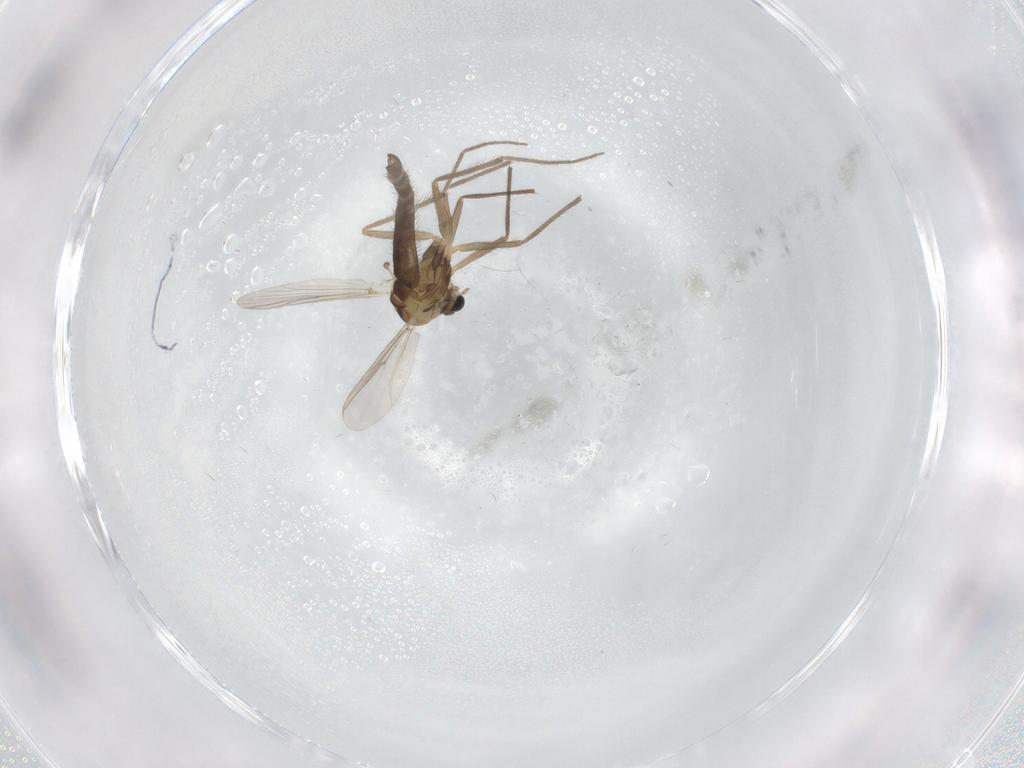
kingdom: Animalia
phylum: Arthropoda
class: Insecta
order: Diptera
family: Chironomidae
